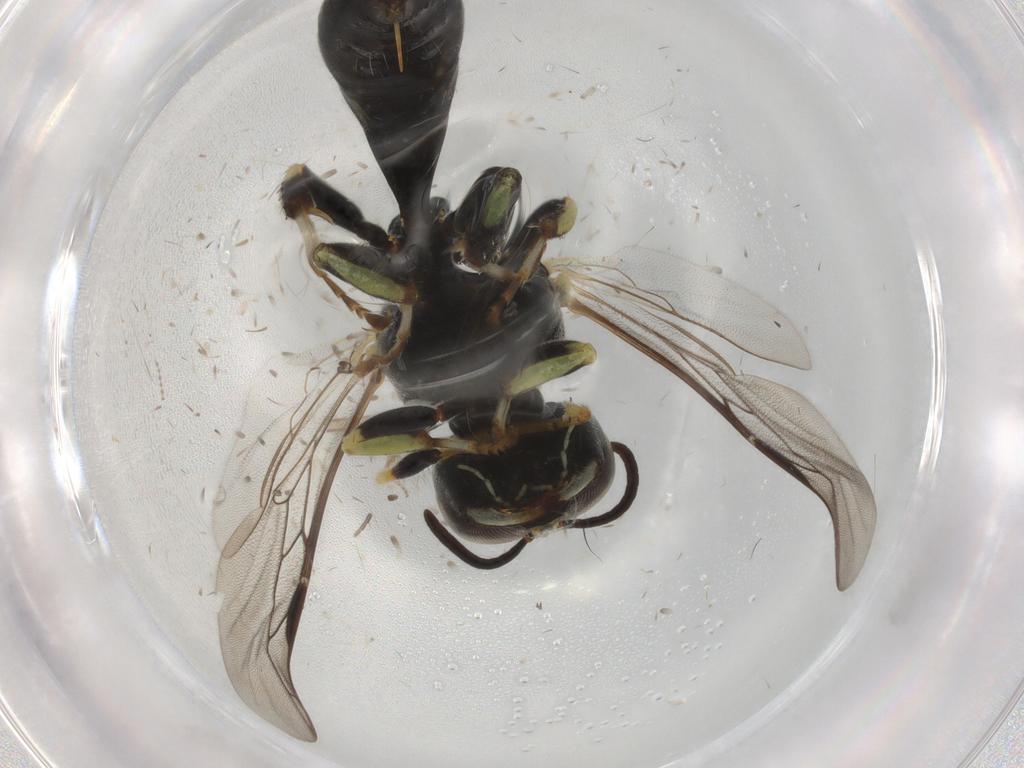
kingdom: Animalia
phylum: Arthropoda
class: Insecta
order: Hymenoptera
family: Crabronidae
